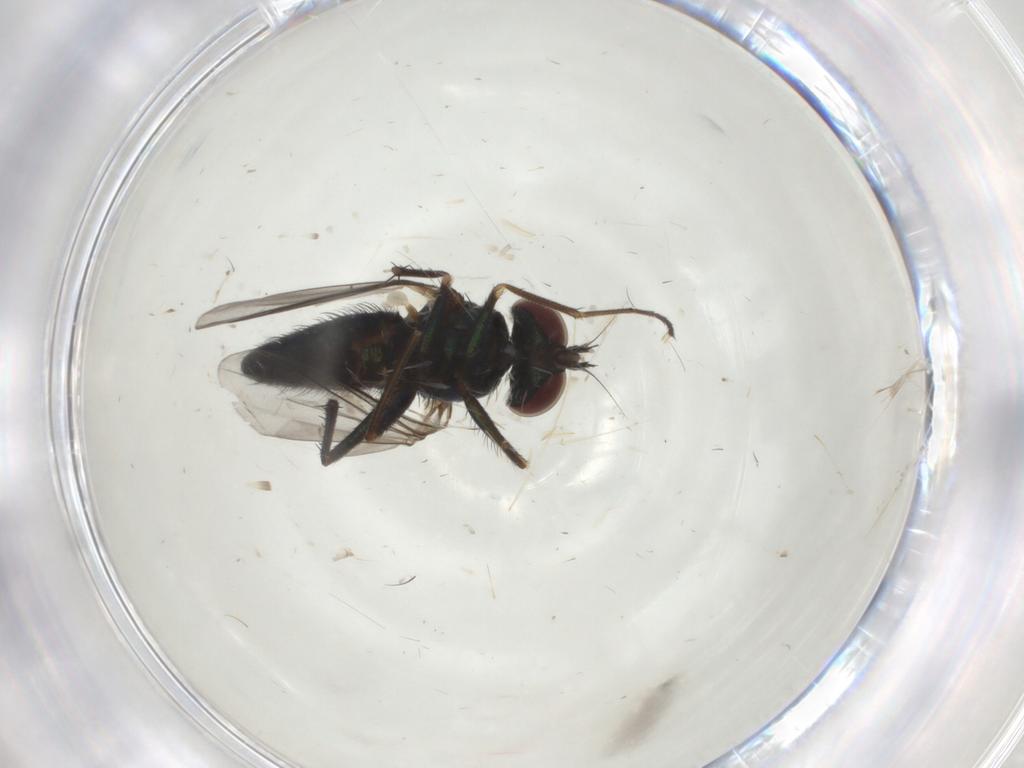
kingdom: Animalia
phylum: Arthropoda
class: Insecta
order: Diptera
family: Dolichopodidae
